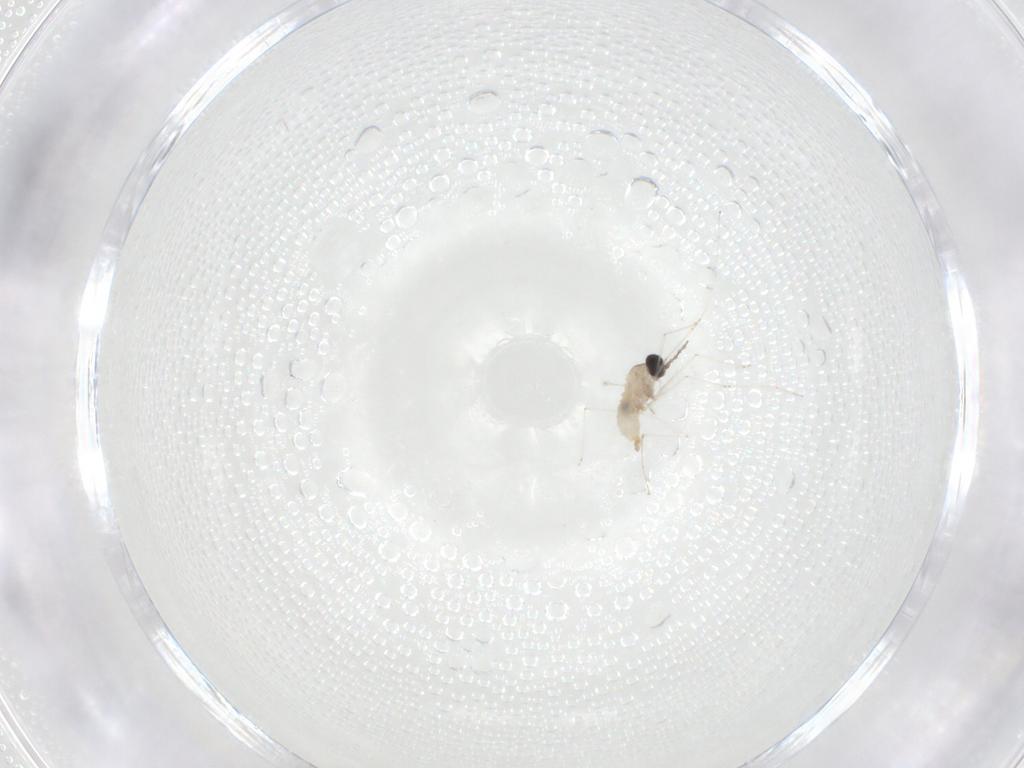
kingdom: Animalia
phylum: Arthropoda
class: Insecta
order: Diptera
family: Cecidomyiidae
